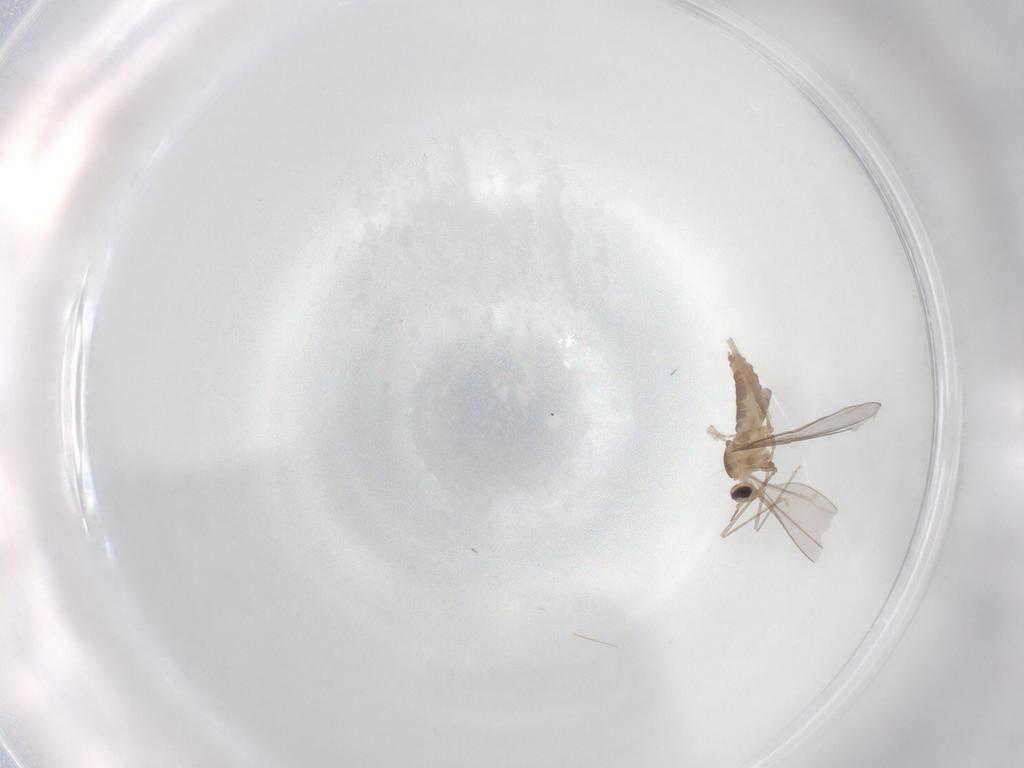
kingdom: Animalia
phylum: Arthropoda
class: Insecta
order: Diptera
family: Cecidomyiidae
